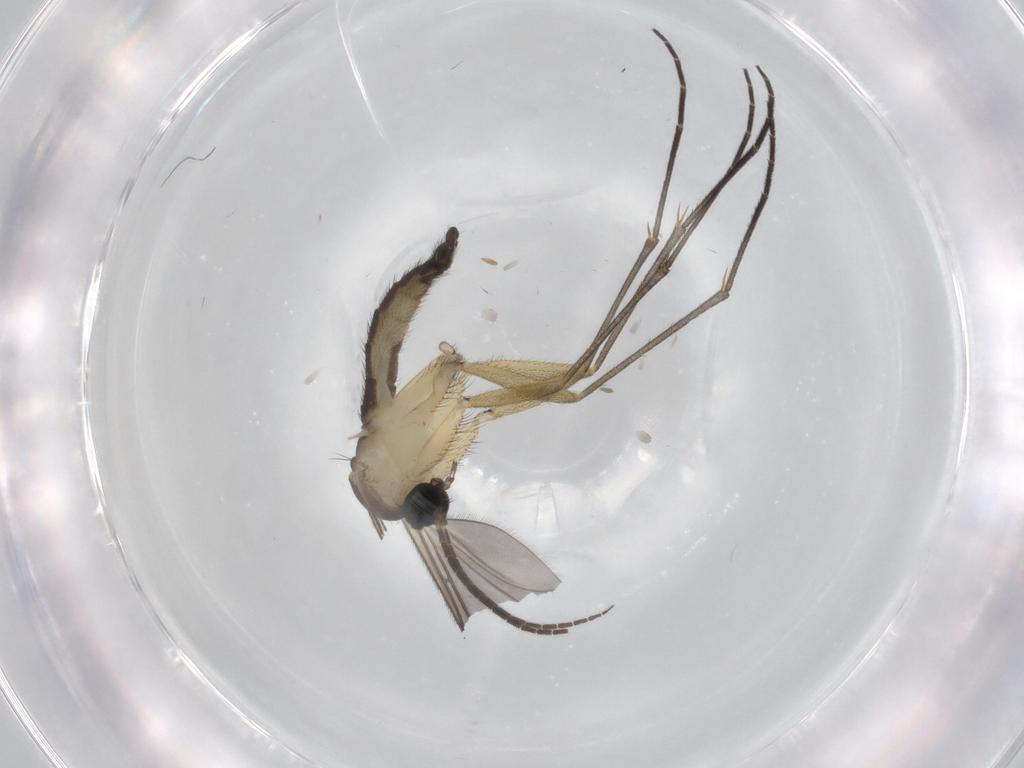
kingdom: Animalia
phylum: Arthropoda
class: Insecta
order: Diptera
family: Sciaridae
